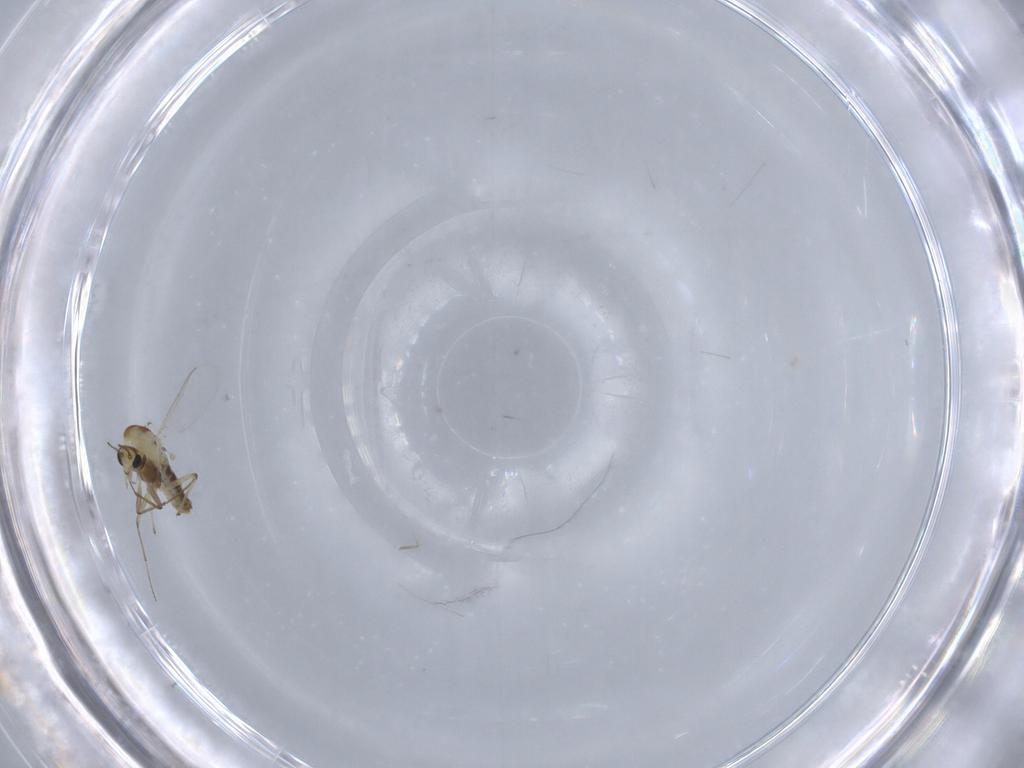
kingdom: Animalia
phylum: Arthropoda
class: Insecta
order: Diptera
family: Chironomidae
